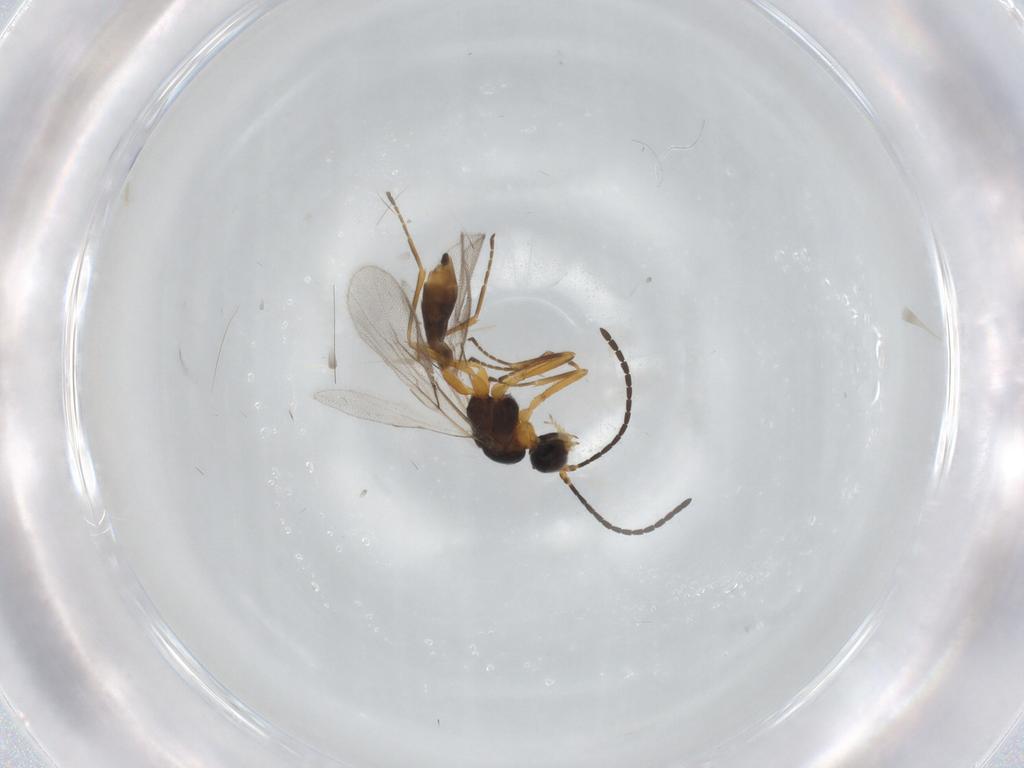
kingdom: Animalia
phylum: Arthropoda
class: Insecta
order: Hymenoptera
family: Braconidae
